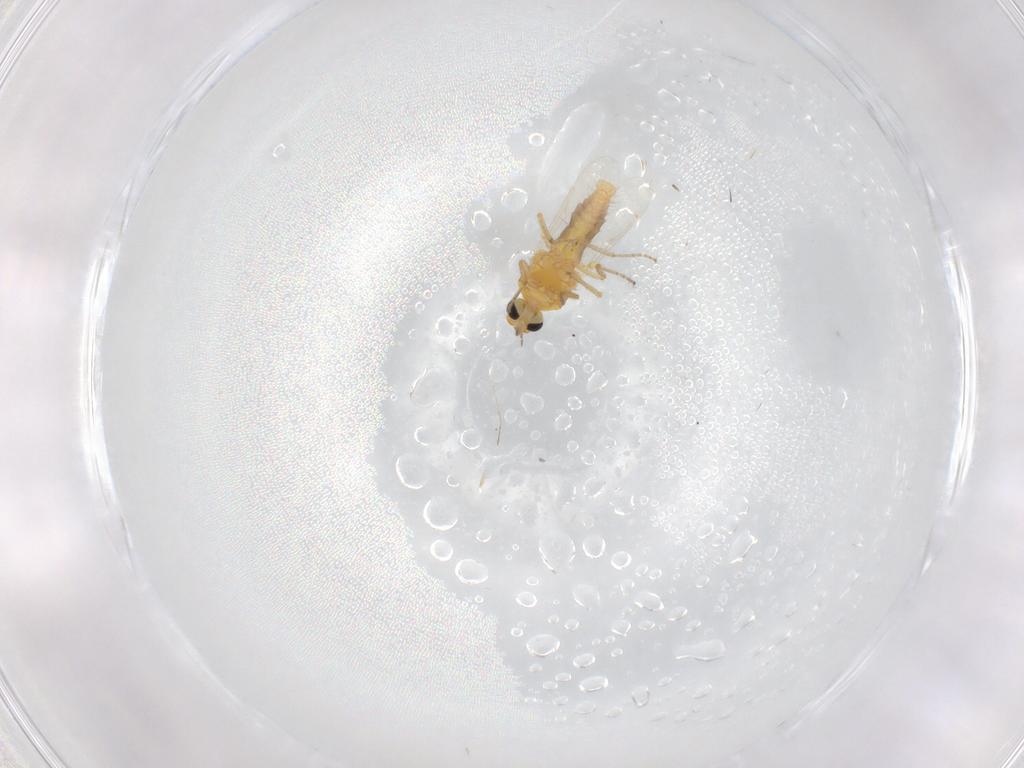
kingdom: Animalia
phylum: Arthropoda
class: Insecta
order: Diptera
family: Ceratopogonidae
